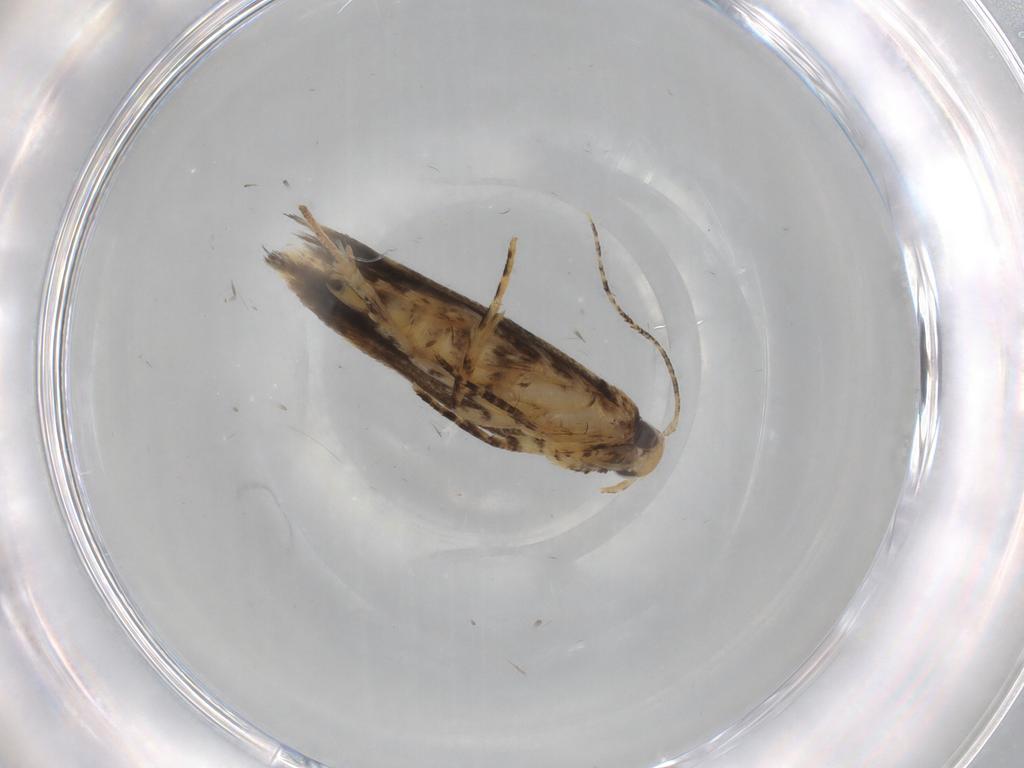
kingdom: Animalia
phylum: Arthropoda
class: Insecta
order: Lepidoptera
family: Gelechiidae
